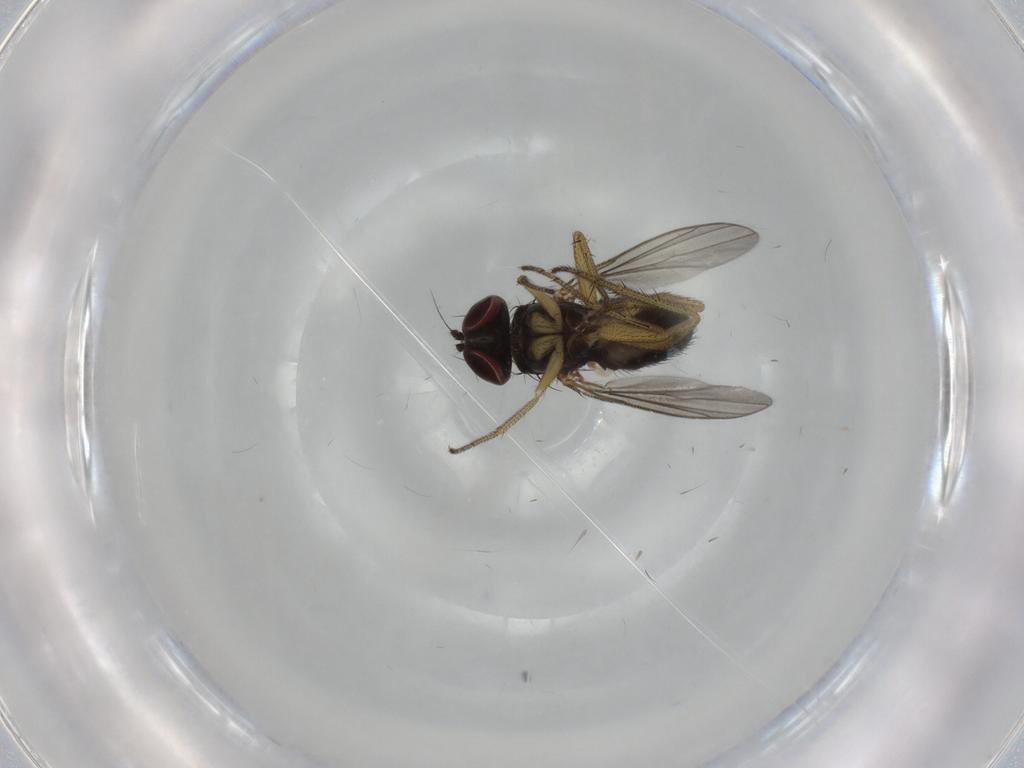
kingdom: Animalia
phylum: Arthropoda
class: Insecta
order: Diptera
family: Dolichopodidae
